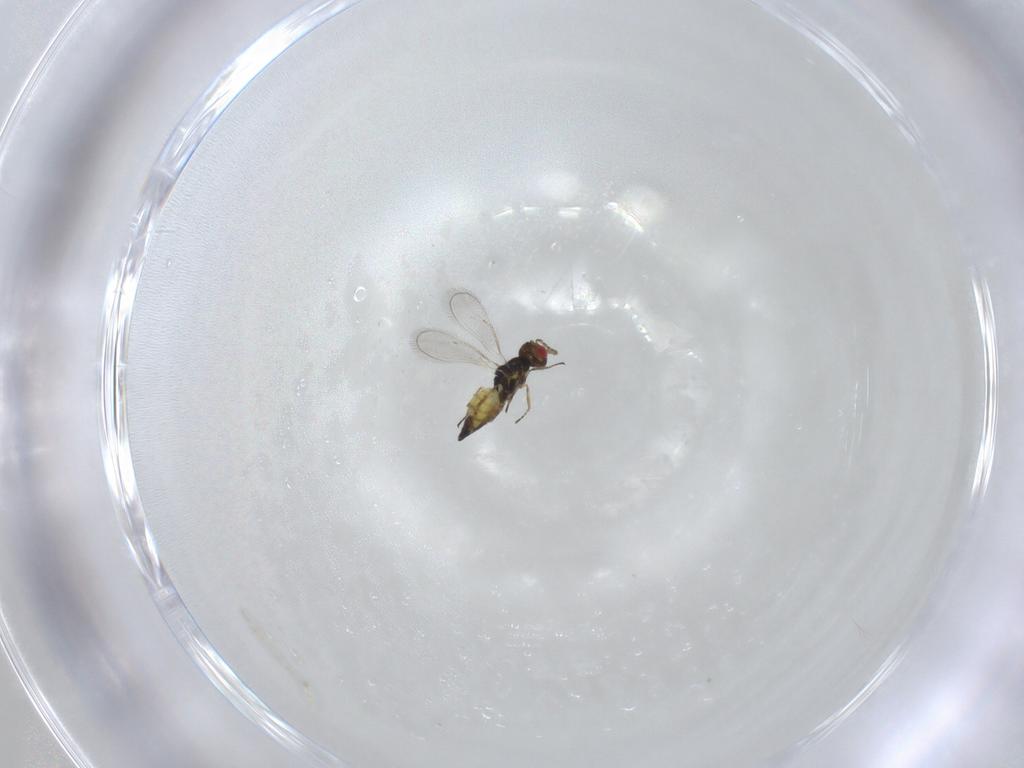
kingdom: Animalia
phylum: Arthropoda
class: Insecta
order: Hymenoptera
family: Eulophidae
